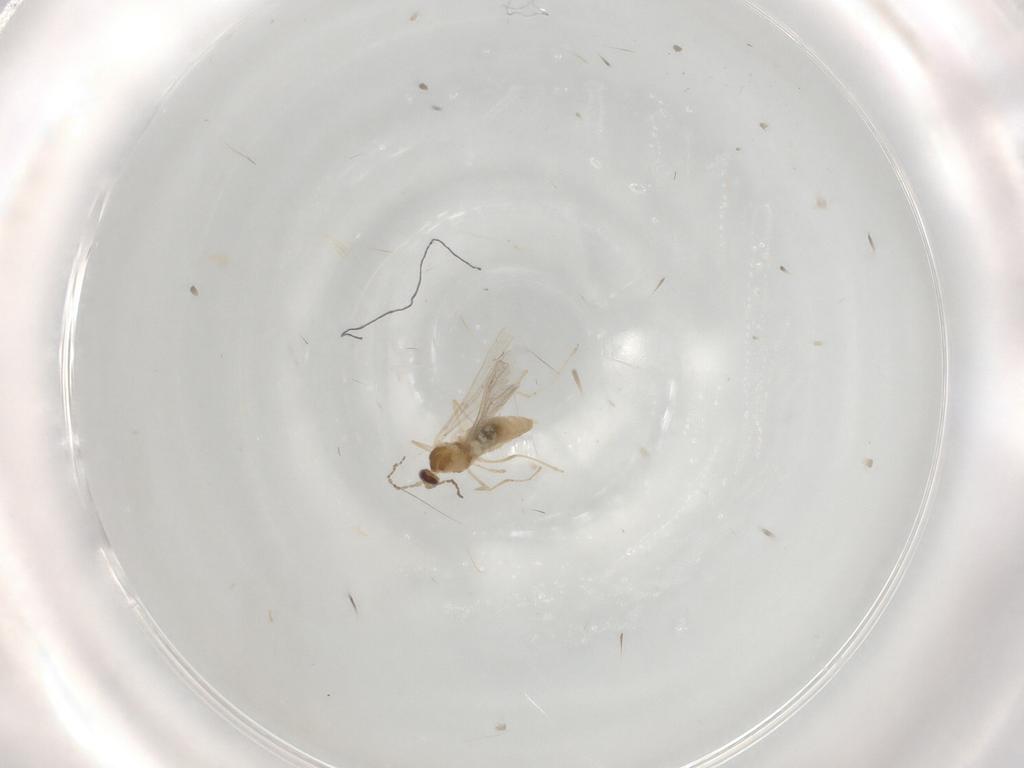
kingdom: Animalia
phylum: Arthropoda
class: Insecta
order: Diptera
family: Cecidomyiidae
